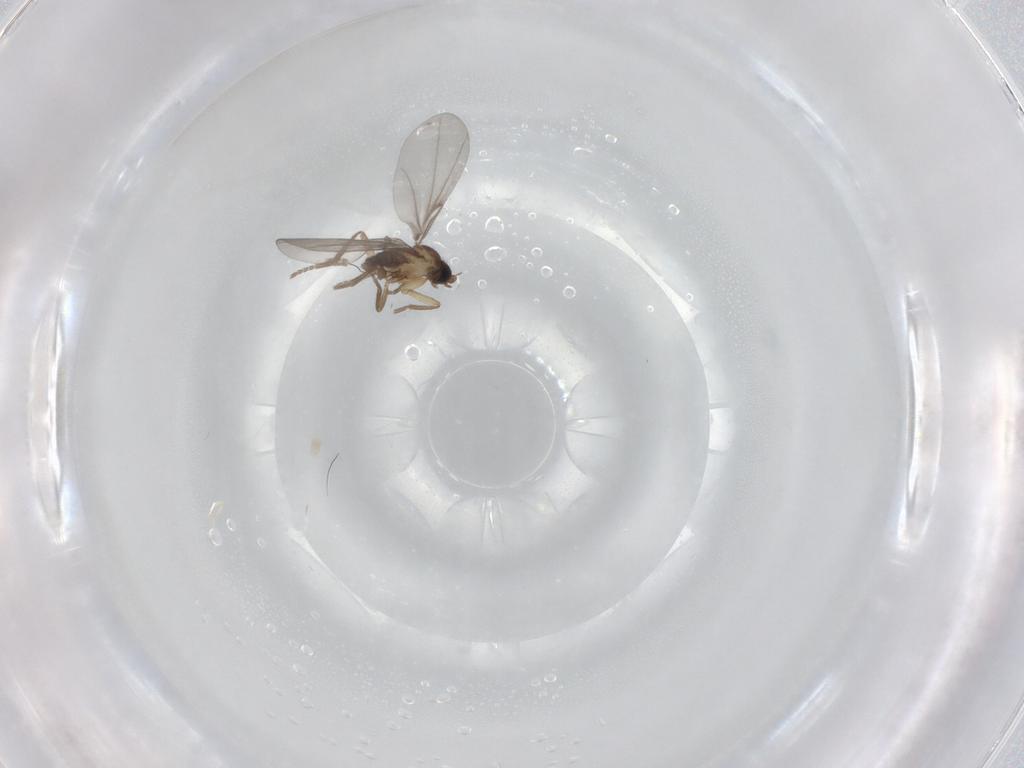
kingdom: Animalia
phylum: Arthropoda
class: Insecta
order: Diptera
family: Phoridae
